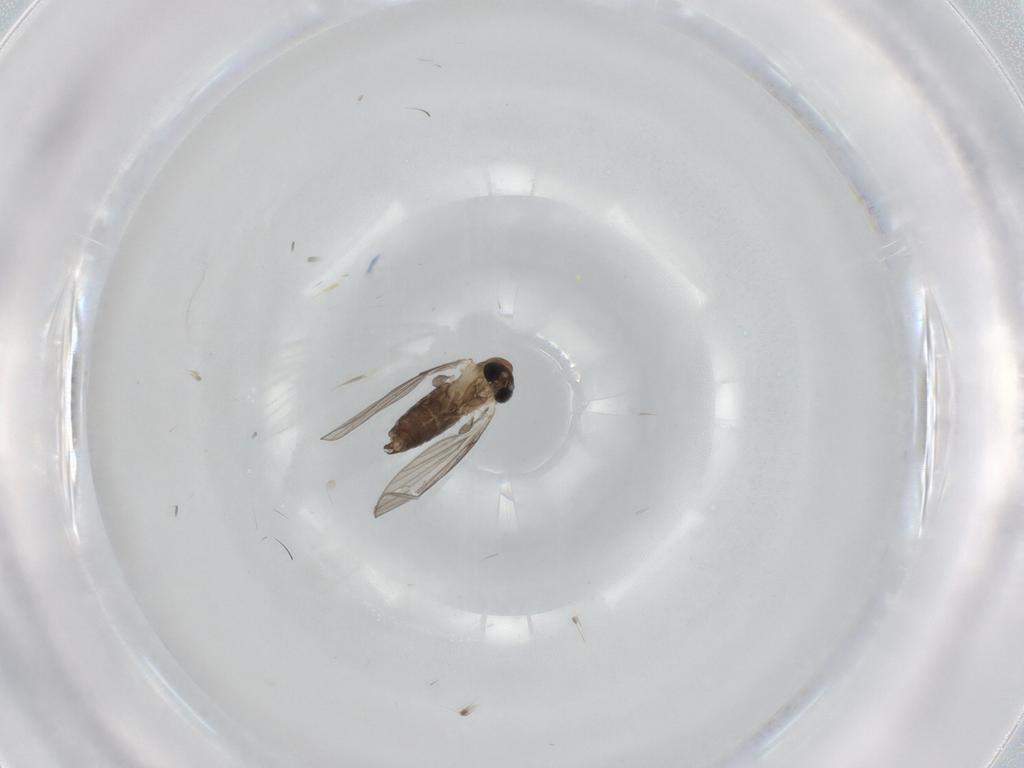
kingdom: Animalia
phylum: Arthropoda
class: Insecta
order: Diptera
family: Psychodidae
